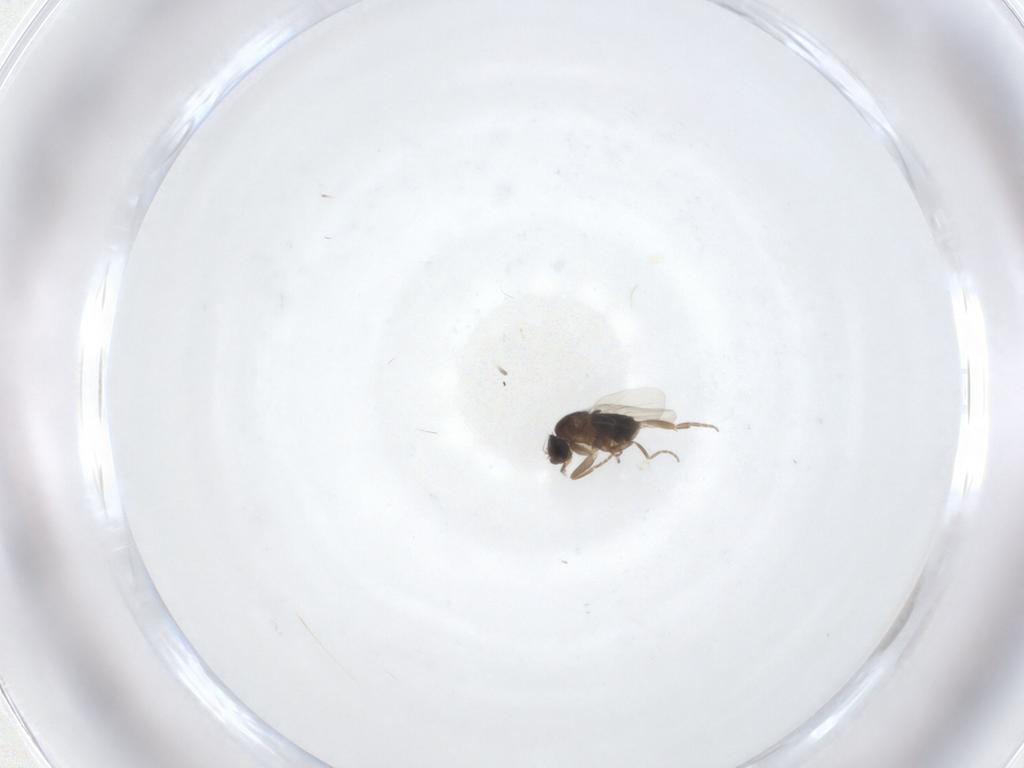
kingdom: Animalia
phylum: Arthropoda
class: Insecta
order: Diptera
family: Phoridae
